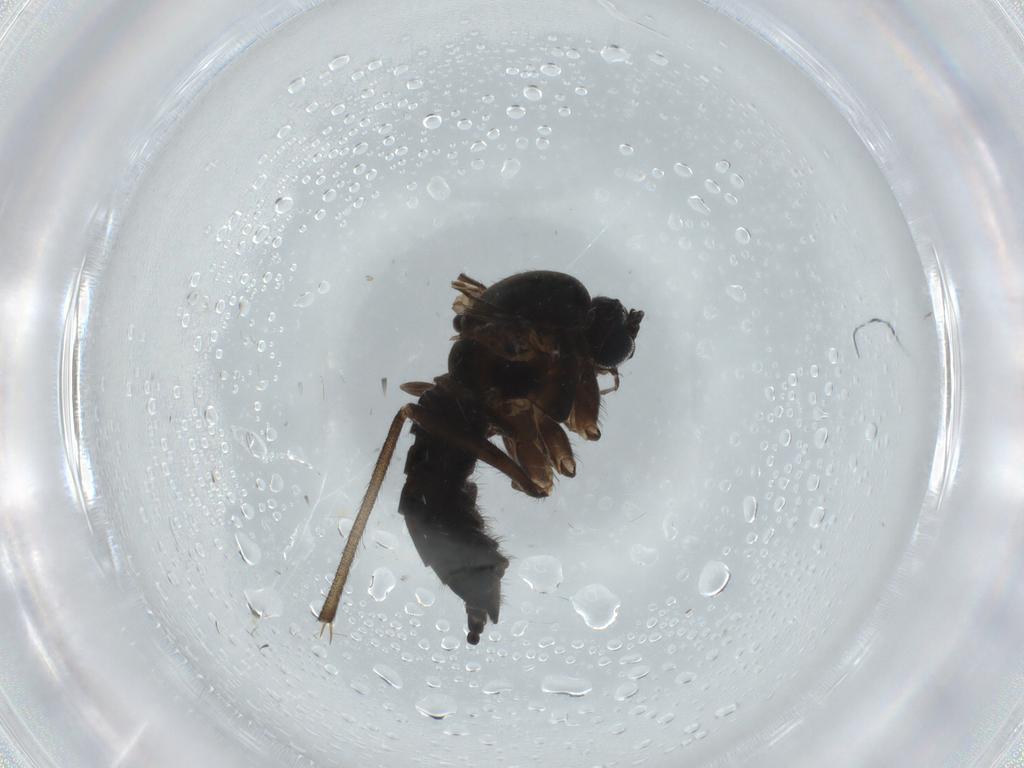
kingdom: Animalia
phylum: Arthropoda
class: Insecta
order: Diptera
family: Sciaridae
